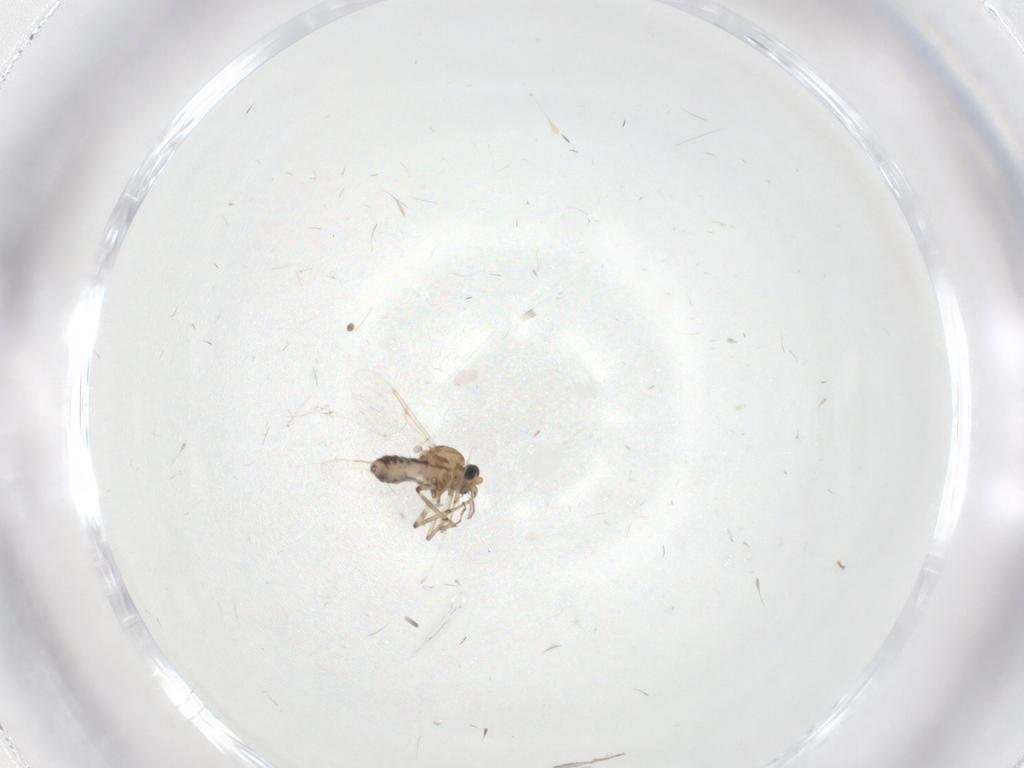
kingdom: Animalia
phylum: Arthropoda
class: Insecta
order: Diptera
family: Ceratopogonidae
